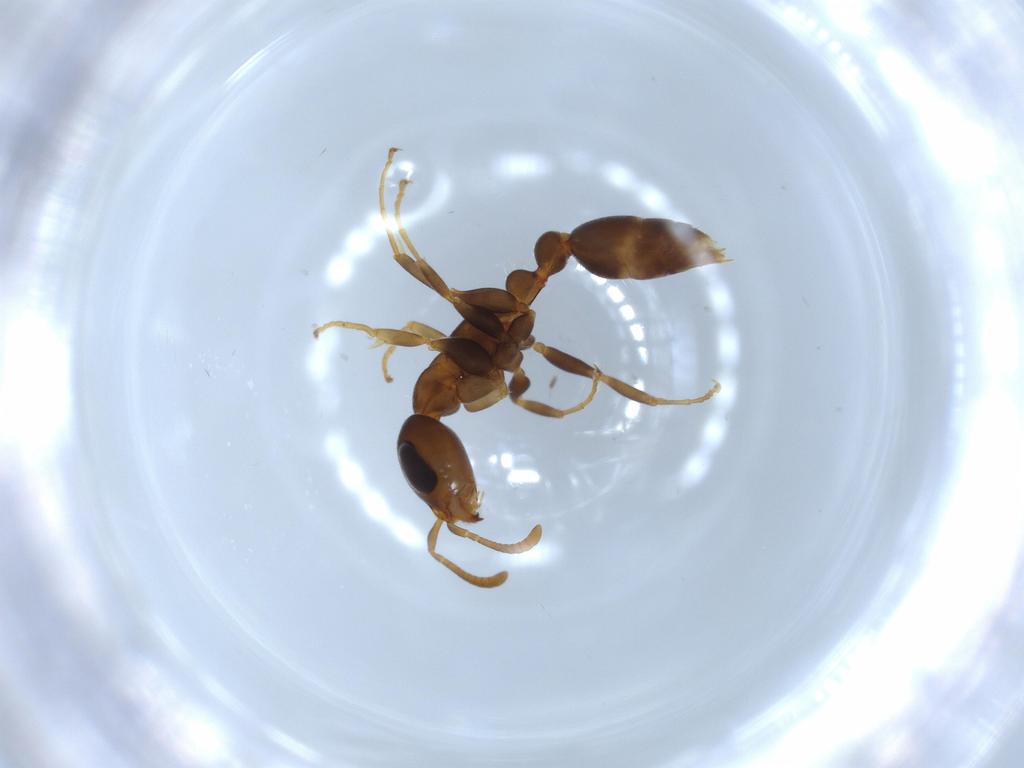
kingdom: Animalia
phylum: Arthropoda
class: Insecta
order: Hymenoptera
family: Formicidae
